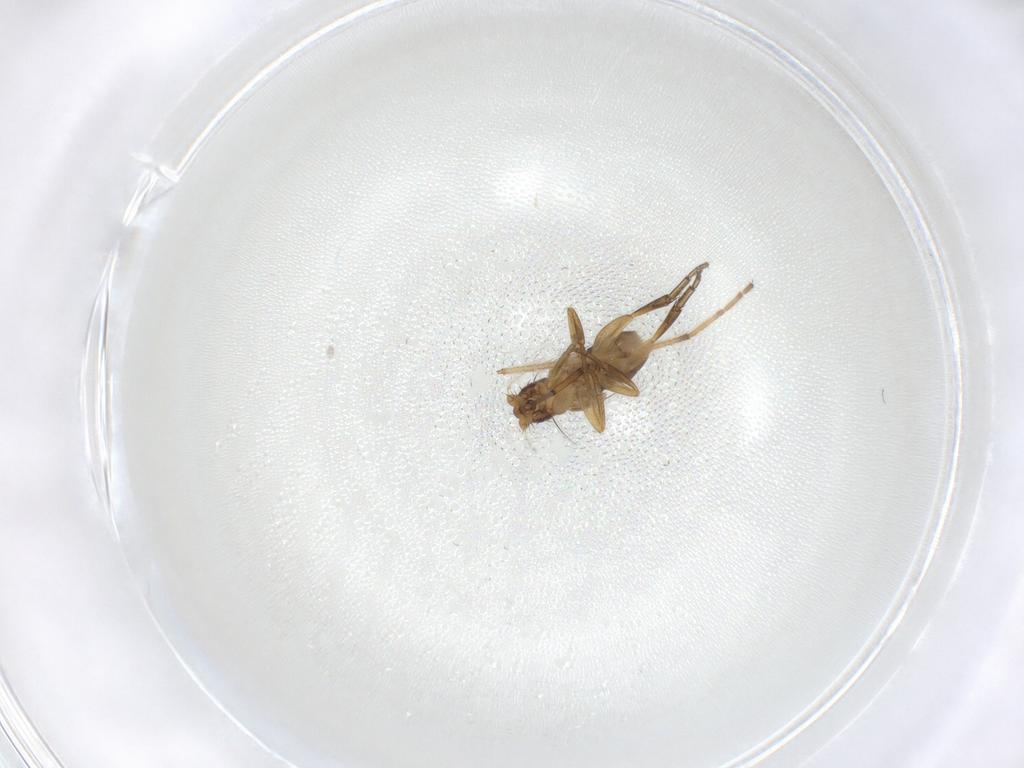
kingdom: Animalia
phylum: Arthropoda
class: Insecta
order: Diptera
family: Phoridae
